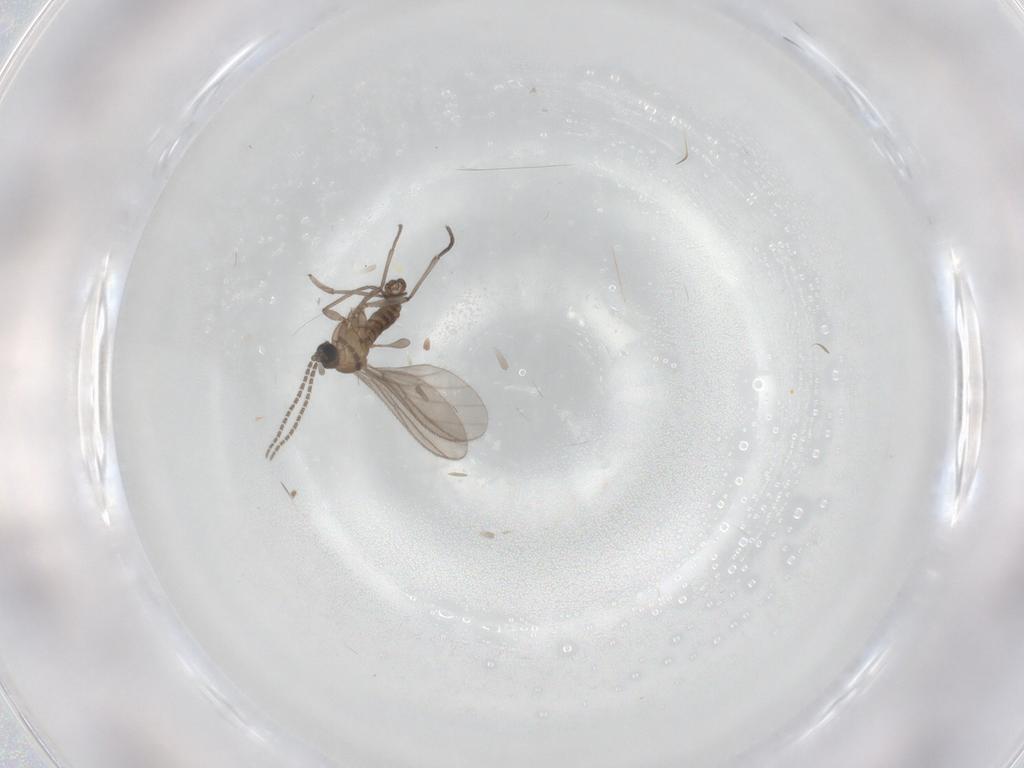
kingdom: Animalia
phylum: Arthropoda
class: Insecta
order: Diptera
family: Sciaridae
